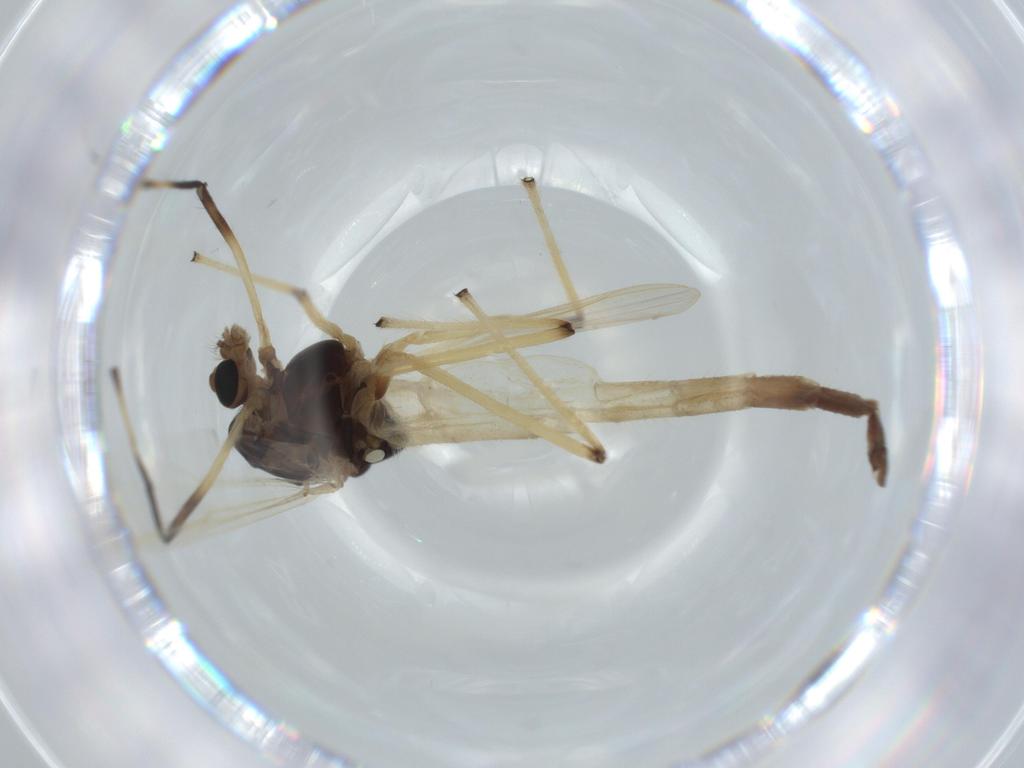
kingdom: Animalia
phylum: Arthropoda
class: Insecta
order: Diptera
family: Chironomidae
